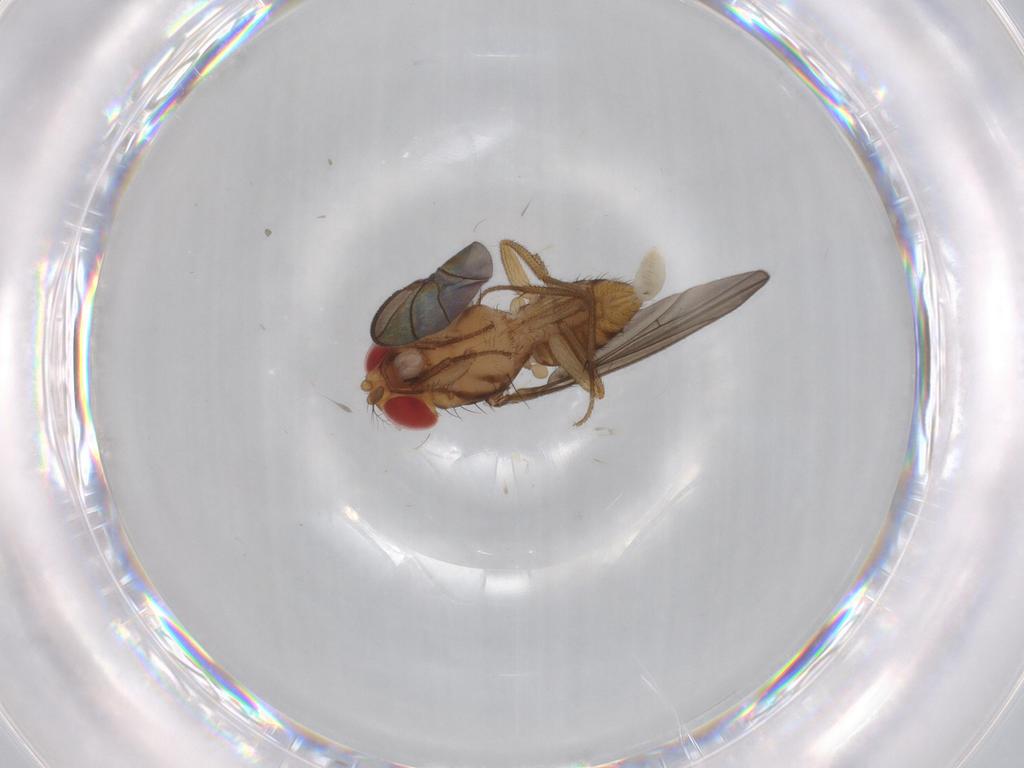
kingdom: Animalia
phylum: Arthropoda
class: Insecta
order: Diptera
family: Drosophilidae
